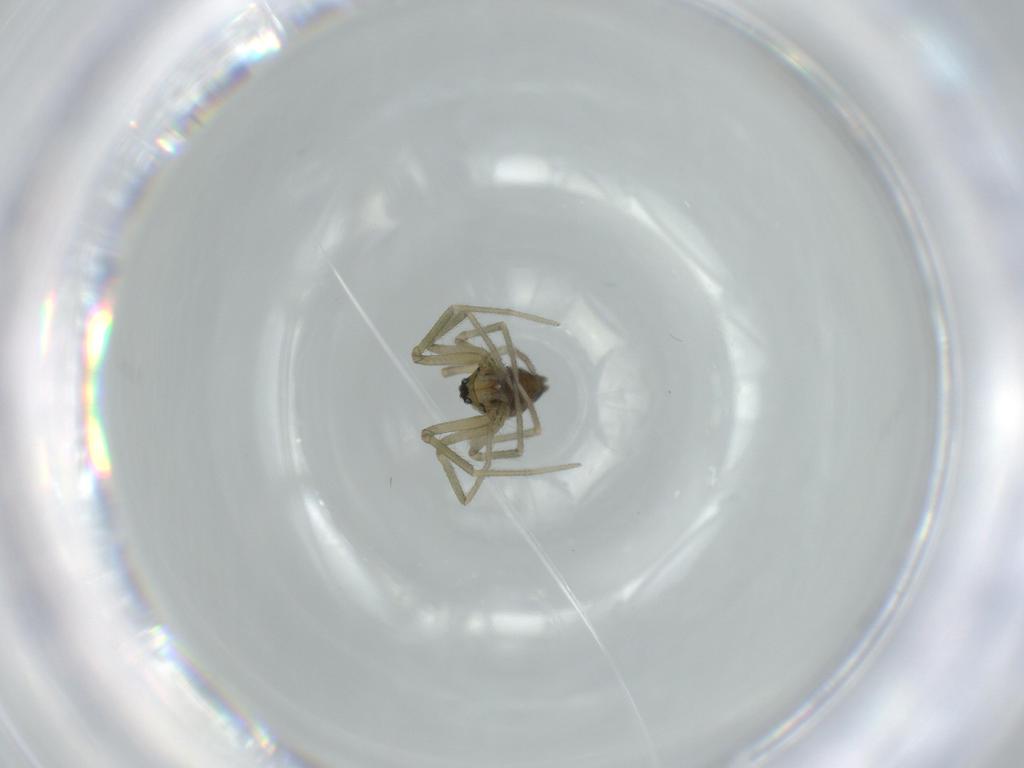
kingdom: Animalia
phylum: Arthropoda
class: Arachnida
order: Araneae
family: Linyphiidae
